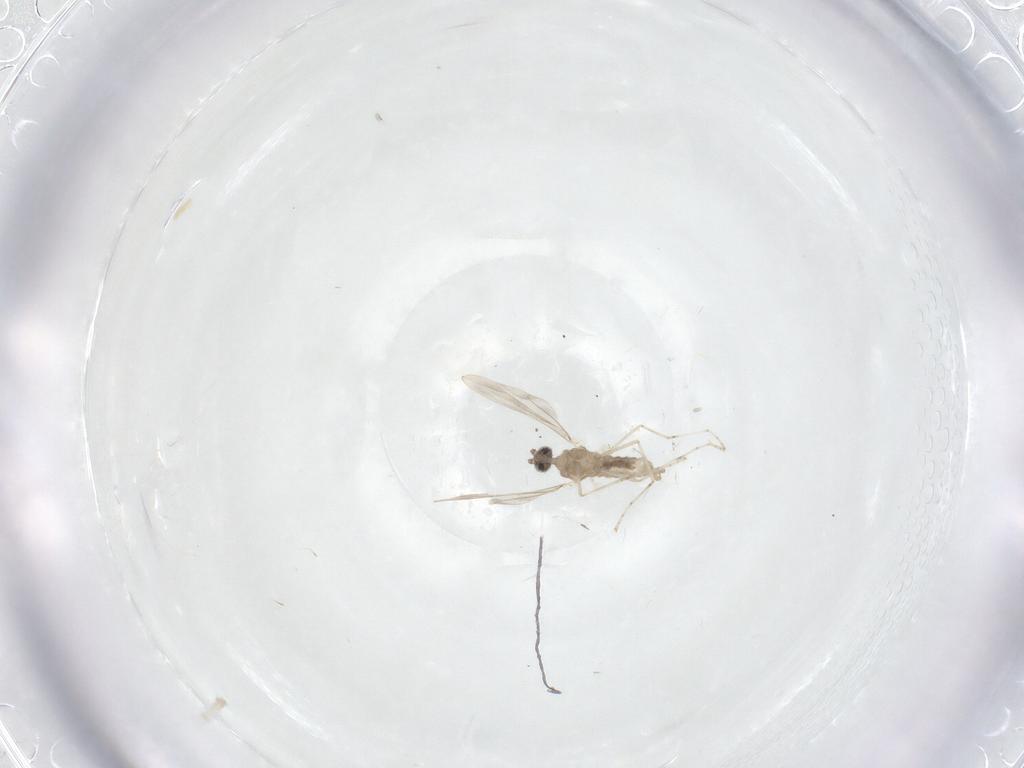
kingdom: Animalia
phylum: Arthropoda
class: Insecta
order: Diptera
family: Cecidomyiidae
